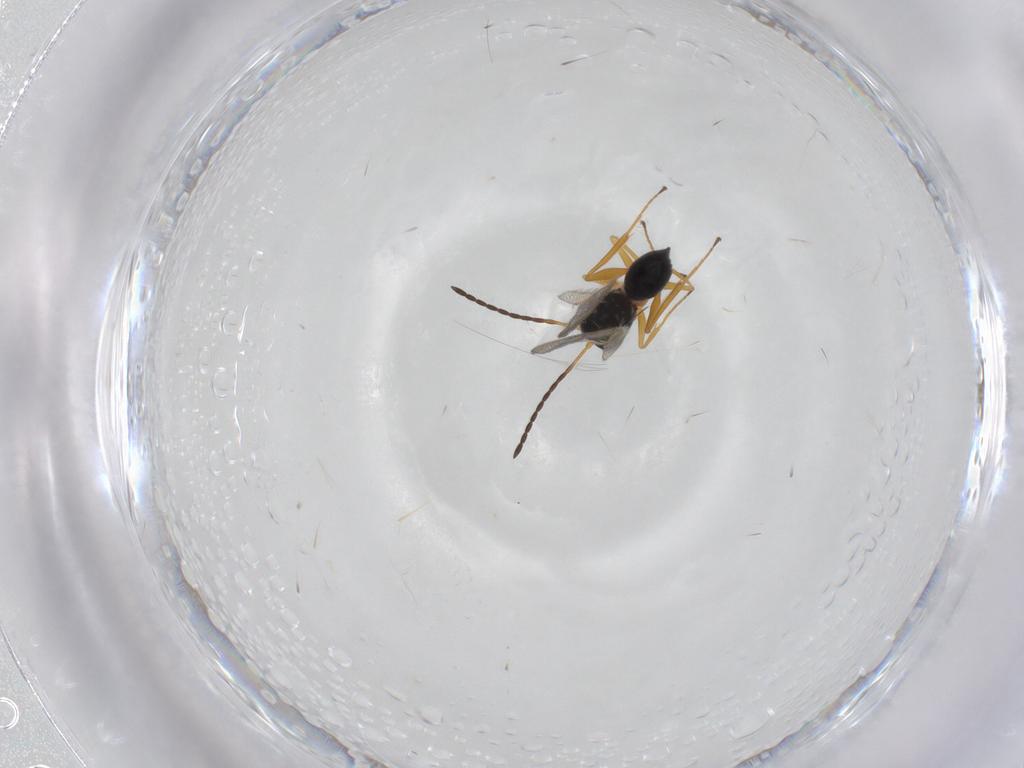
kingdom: Animalia
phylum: Arthropoda
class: Insecta
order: Hymenoptera
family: Figitidae
